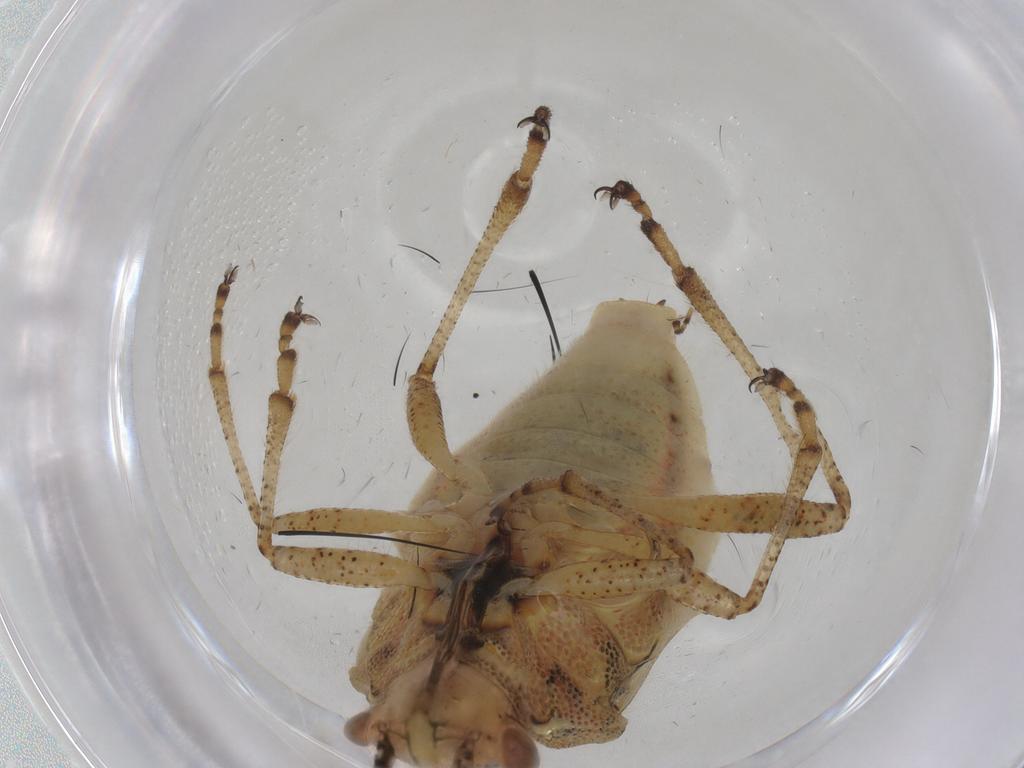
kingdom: Animalia
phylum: Arthropoda
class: Insecta
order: Hemiptera
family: Rhopalidae
